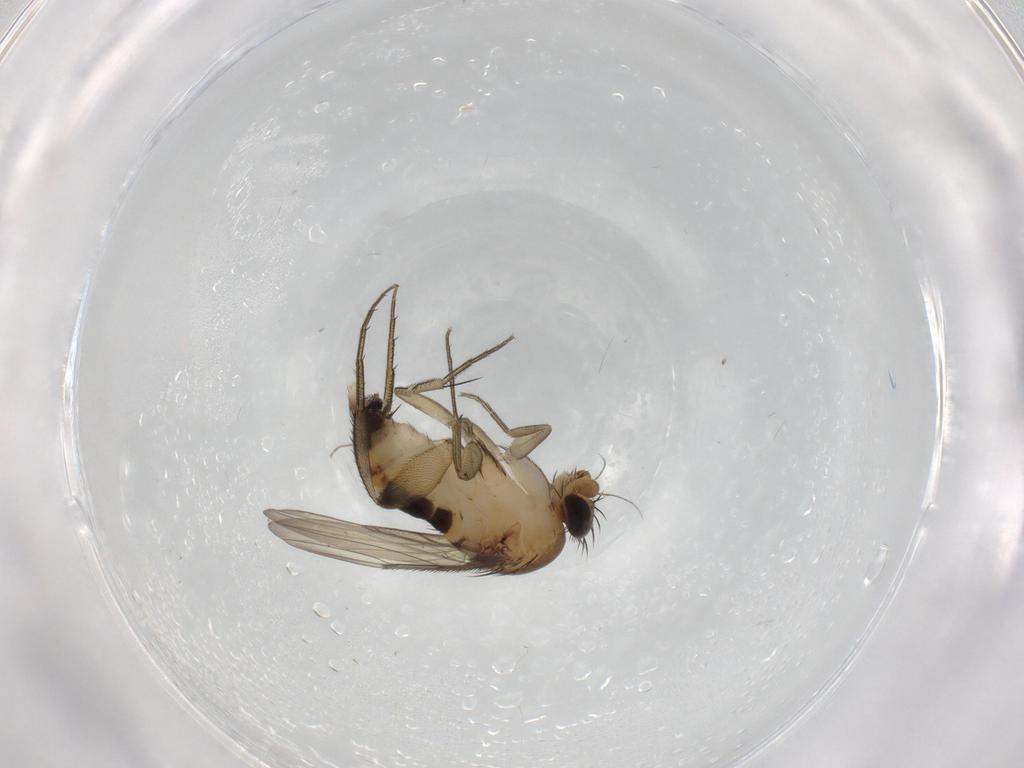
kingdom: Animalia
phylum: Arthropoda
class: Insecta
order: Diptera
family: Phoridae
